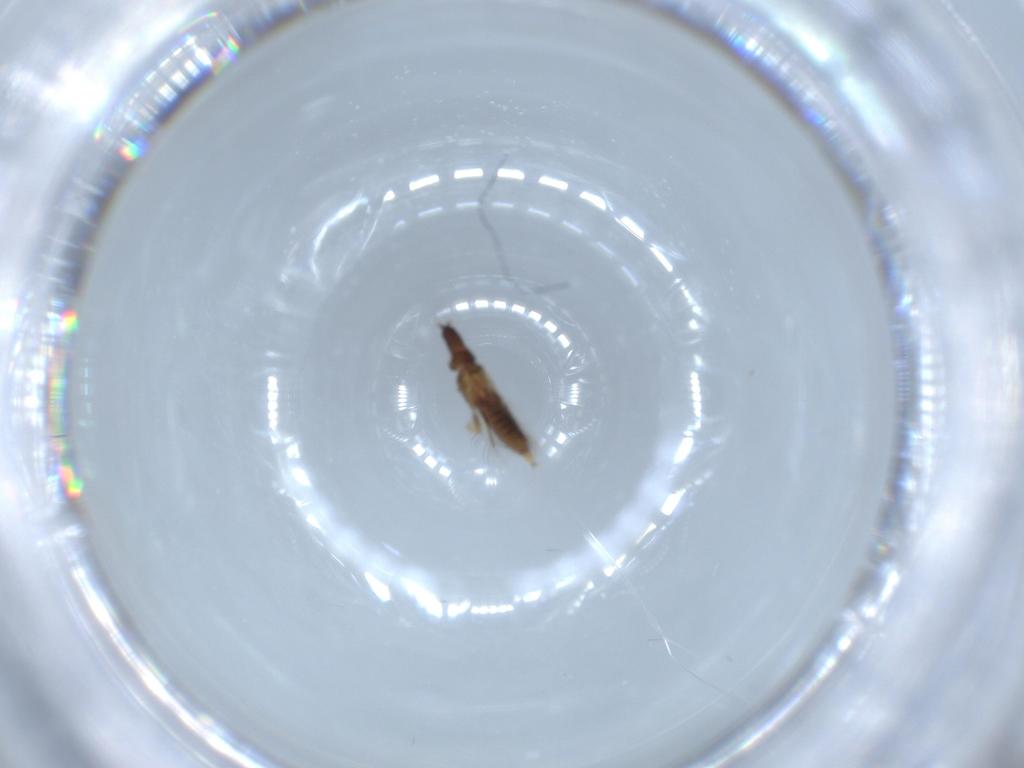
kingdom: Animalia
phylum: Arthropoda
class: Insecta
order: Thysanoptera
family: Phlaeothripidae
